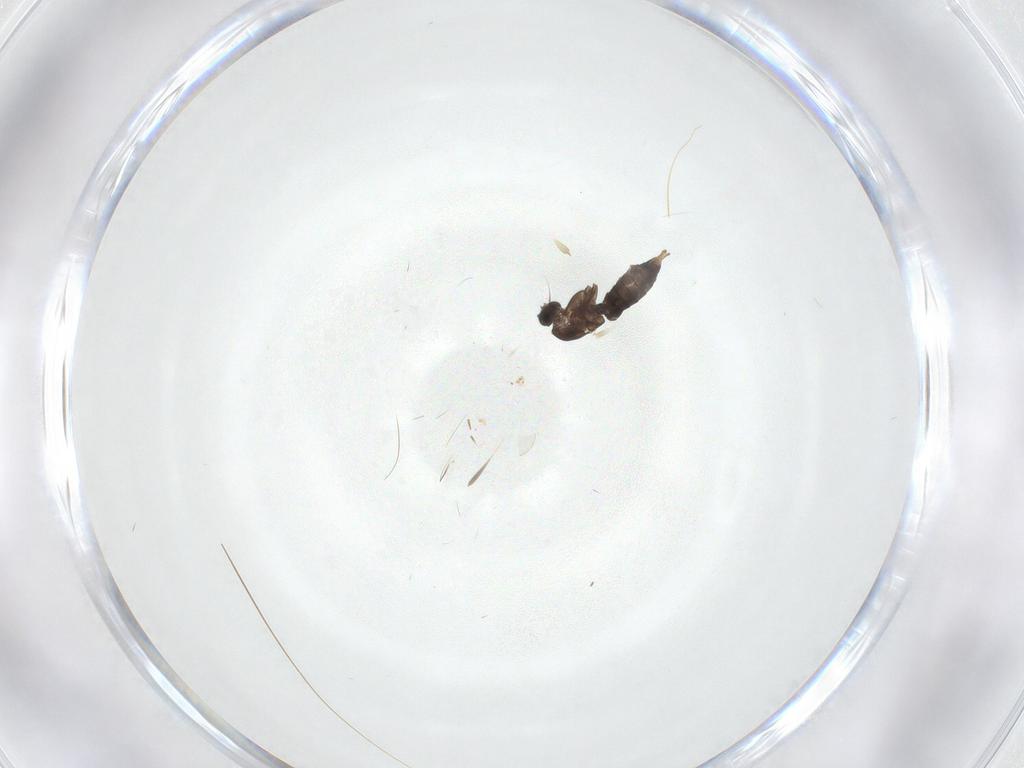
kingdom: Animalia
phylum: Arthropoda
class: Insecta
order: Diptera
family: Chironomidae
